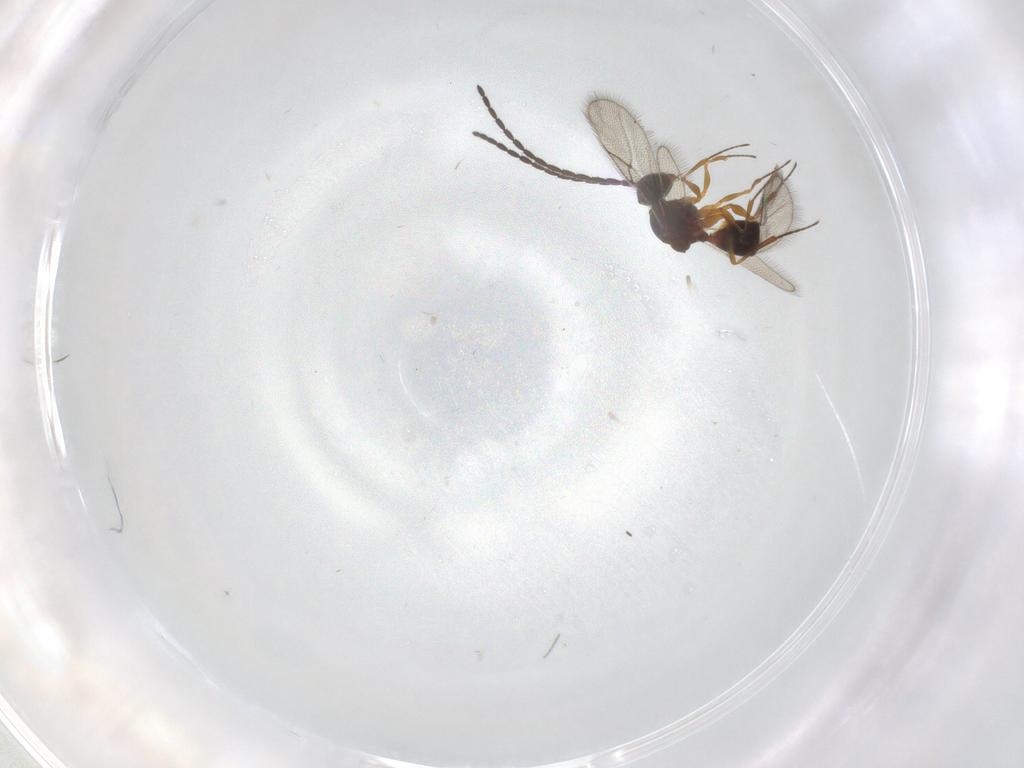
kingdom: Animalia
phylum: Arthropoda
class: Insecta
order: Hymenoptera
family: Figitidae
